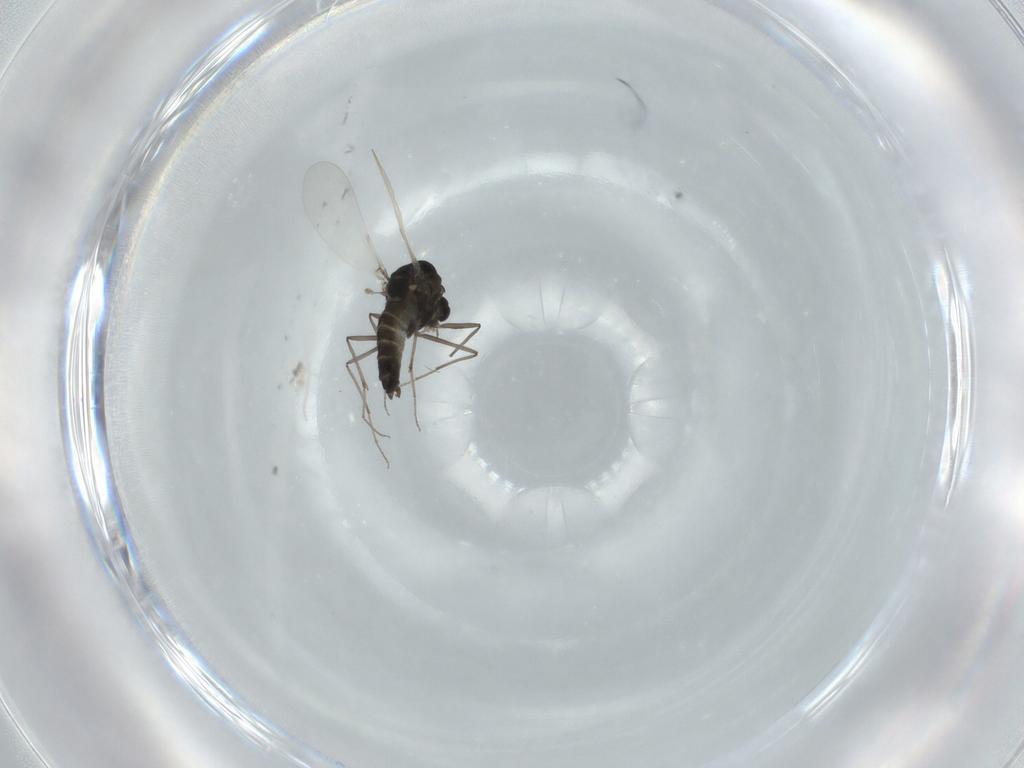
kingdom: Animalia
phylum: Arthropoda
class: Insecta
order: Diptera
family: Chironomidae
